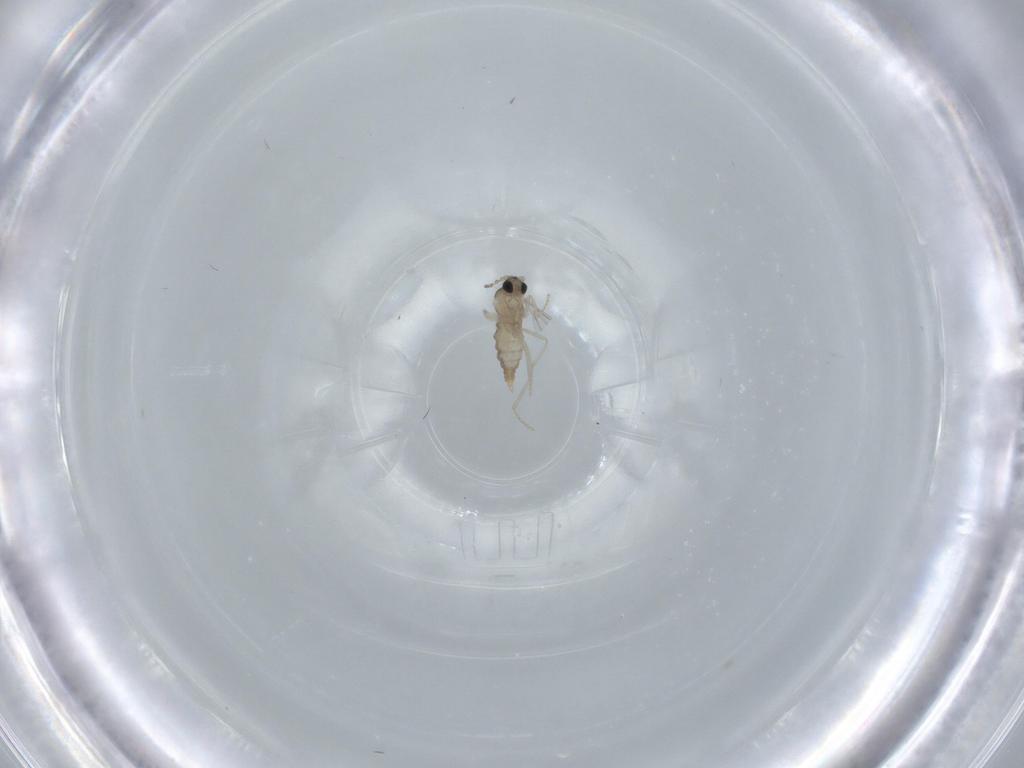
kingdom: Animalia
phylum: Arthropoda
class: Insecta
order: Diptera
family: Cecidomyiidae
